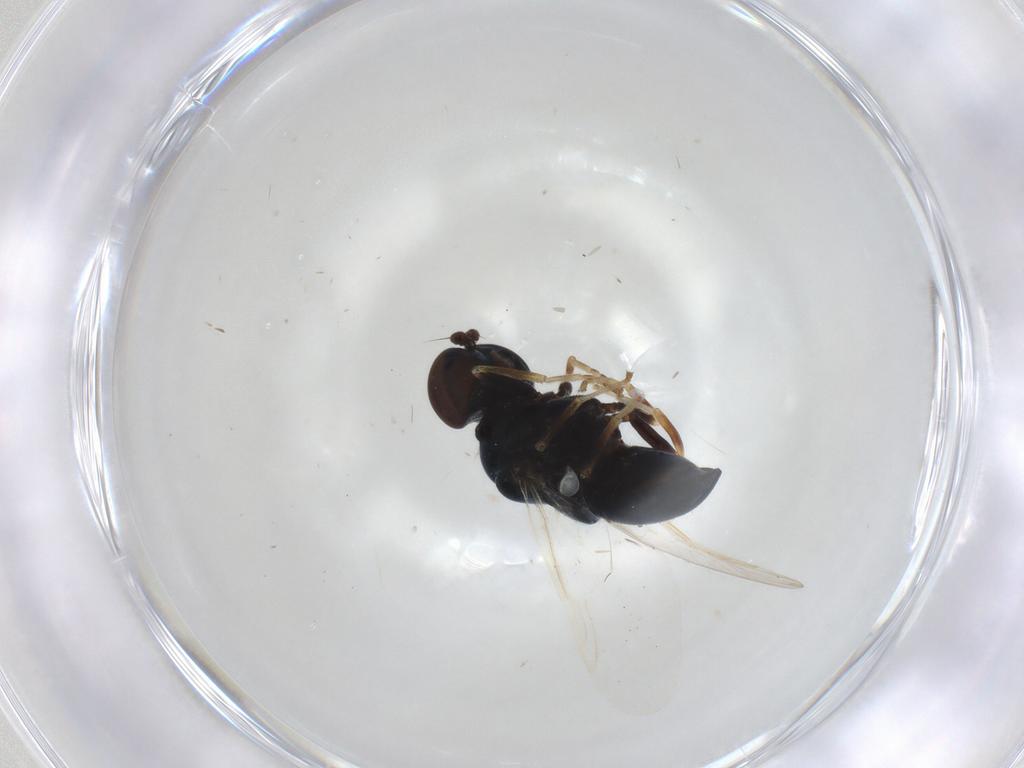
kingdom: Animalia
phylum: Arthropoda
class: Insecta
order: Diptera
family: Stratiomyidae
